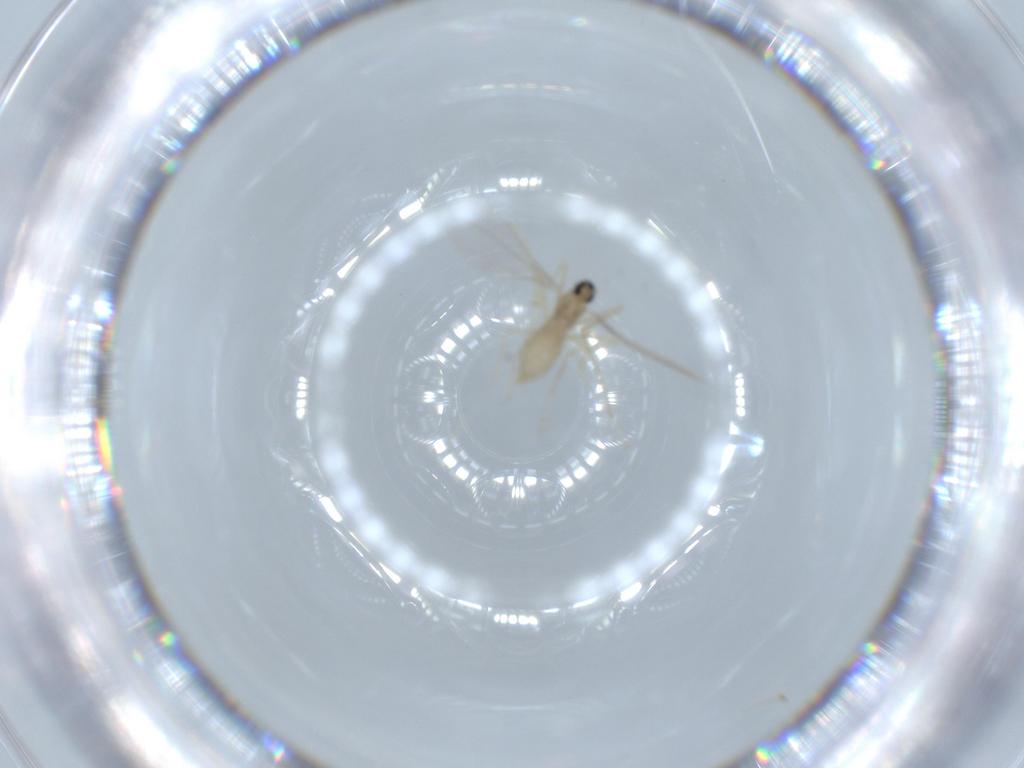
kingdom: Animalia
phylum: Arthropoda
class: Insecta
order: Diptera
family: Cecidomyiidae
